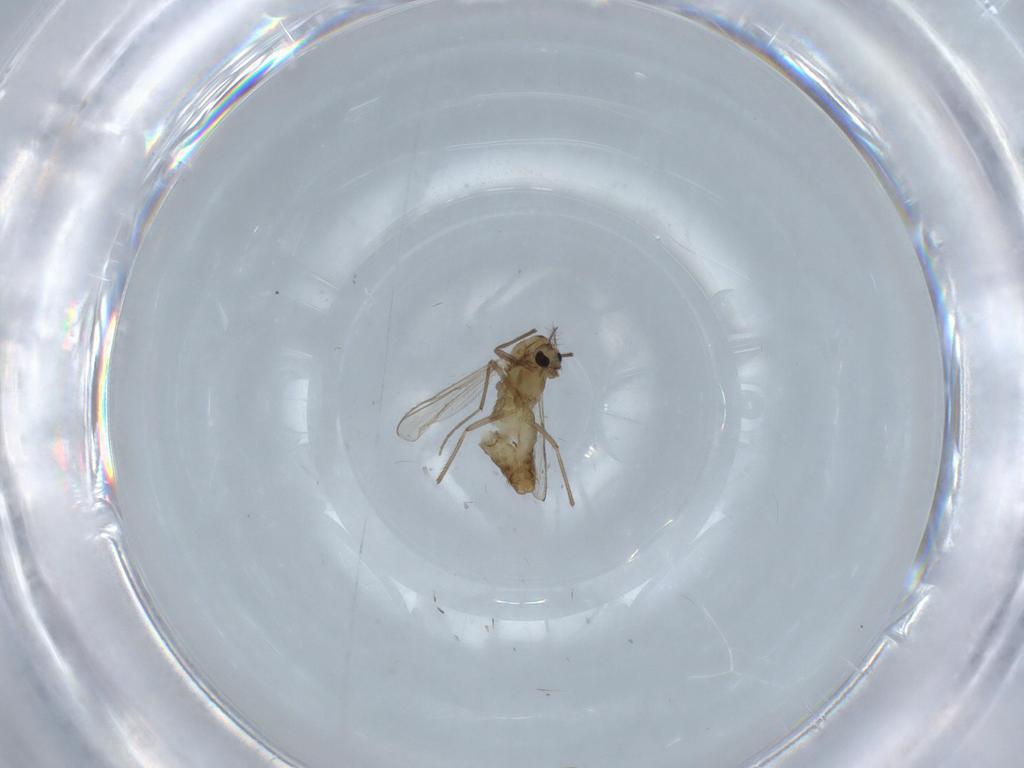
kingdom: Animalia
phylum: Arthropoda
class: Insecta
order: Diptera
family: Chironomidae
